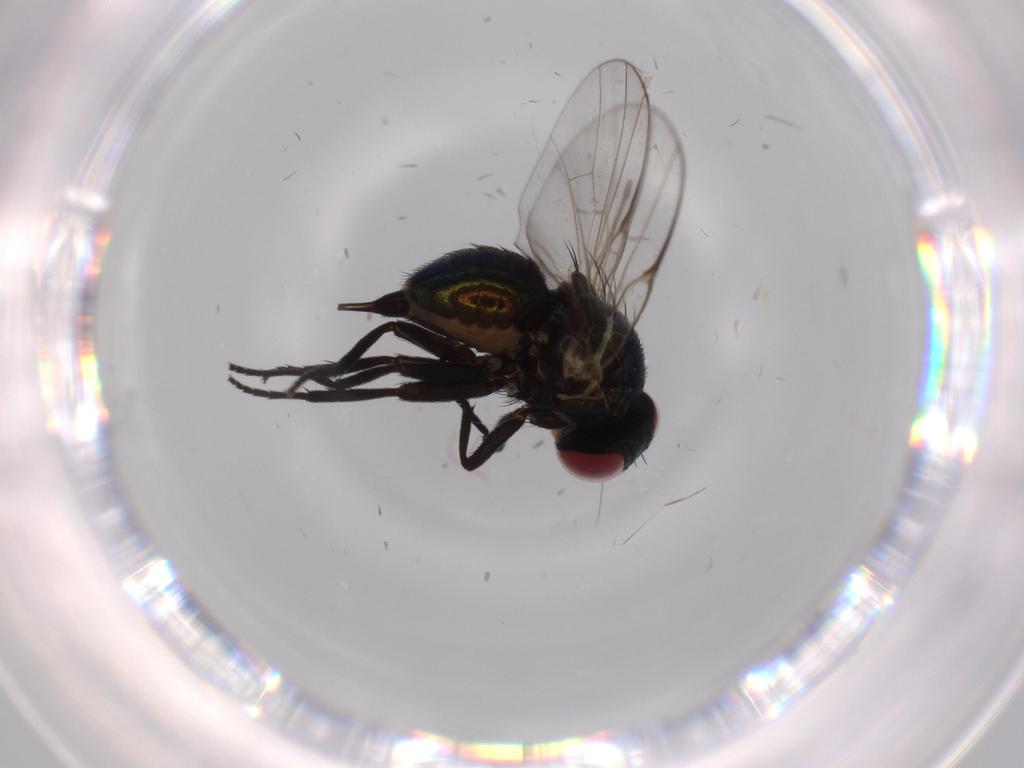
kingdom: Animalia
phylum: Arthropoda
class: Insecta
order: Diptera
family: Agromyzidae
